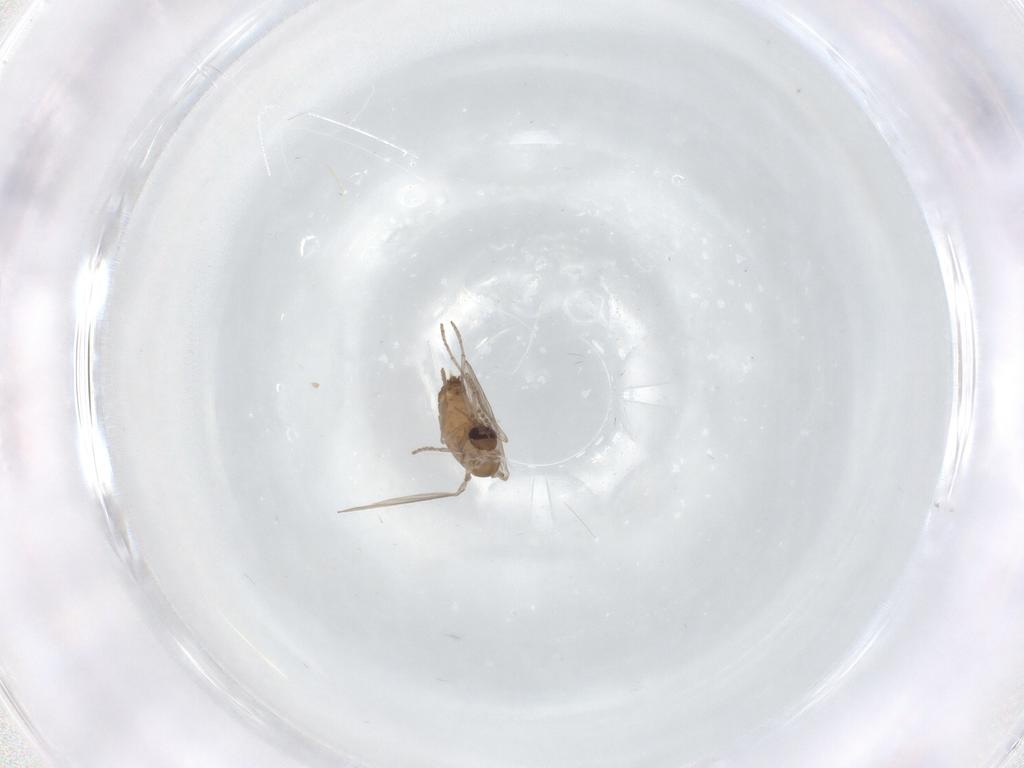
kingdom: Animalia
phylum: Arthropoda
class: Insecta
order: Diptera
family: Psychodidae
